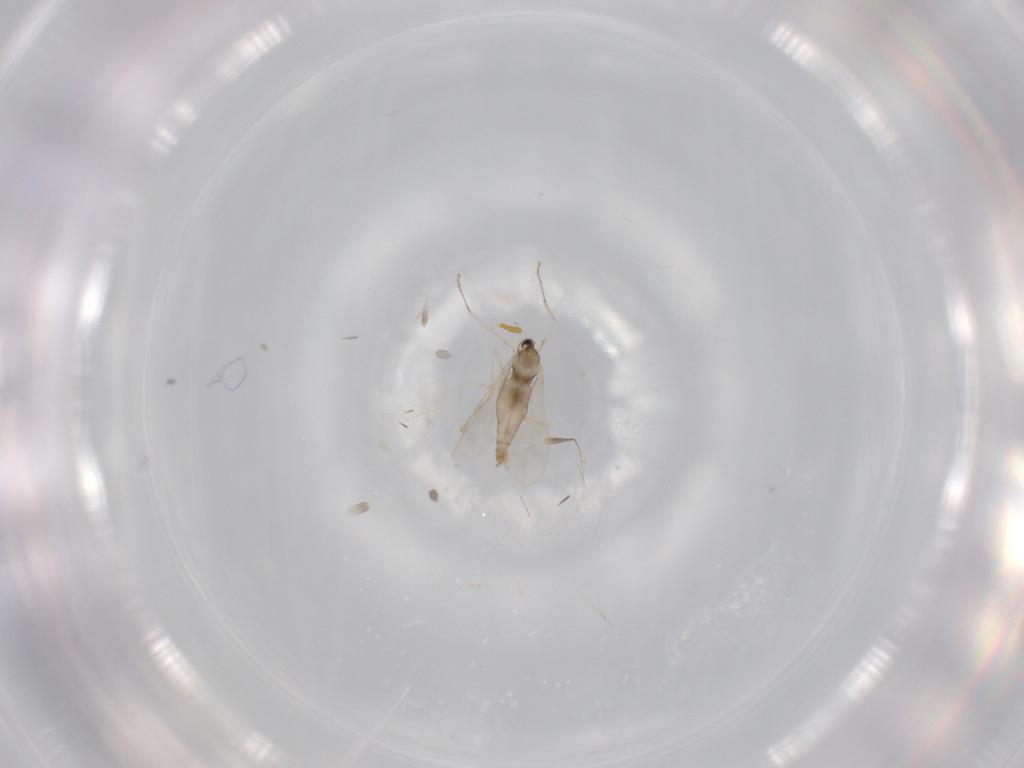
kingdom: Animalia
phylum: Arthropoda
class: Insecta
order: Diptera
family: Cecidomyiidae
